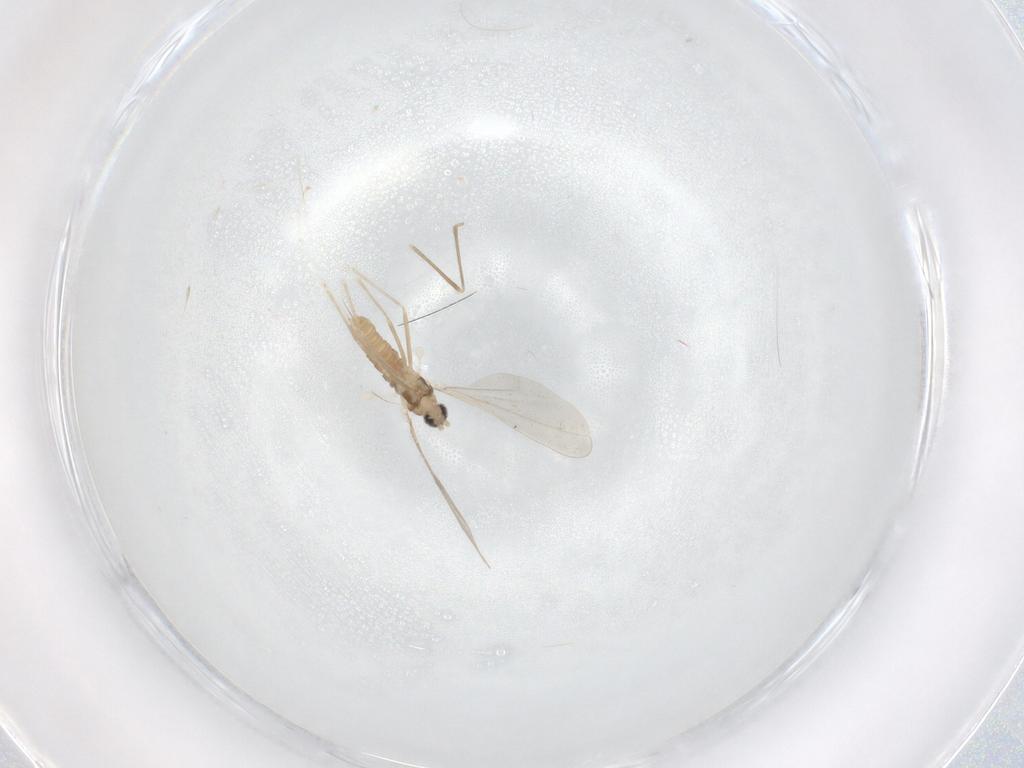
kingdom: Animalia
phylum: Arthropoda
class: Insecta
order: Diptera
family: Cecidomyiidae
